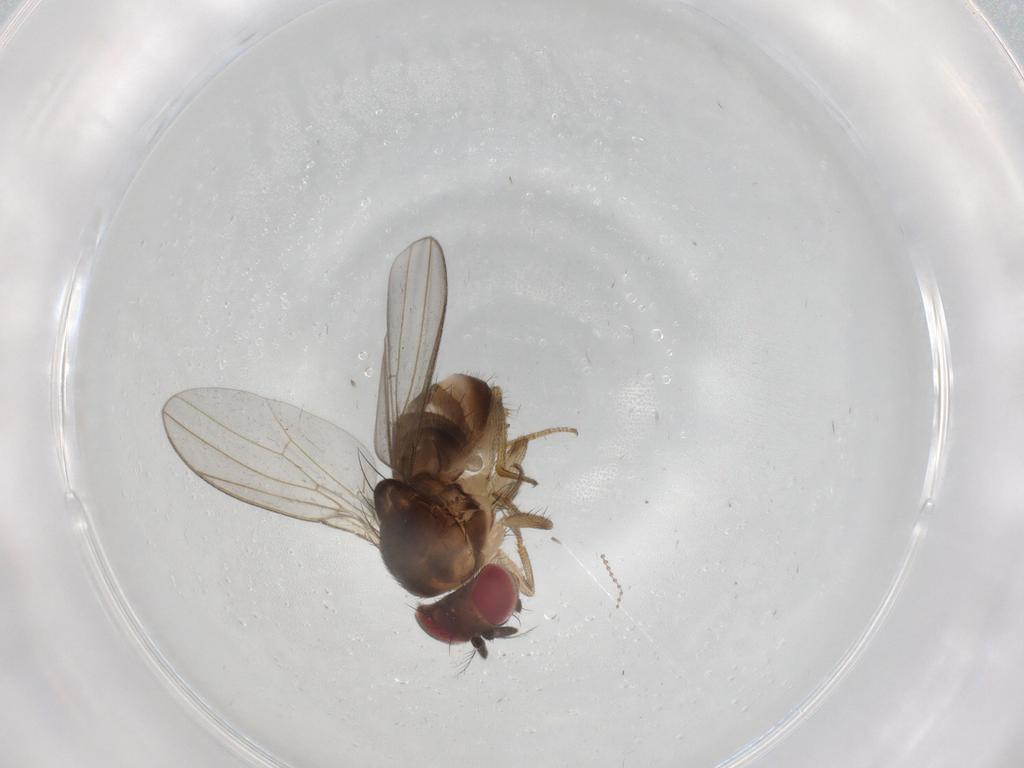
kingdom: Animalia
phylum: Arthropoda
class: Insecta
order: Diptera
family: Drosophilidae
